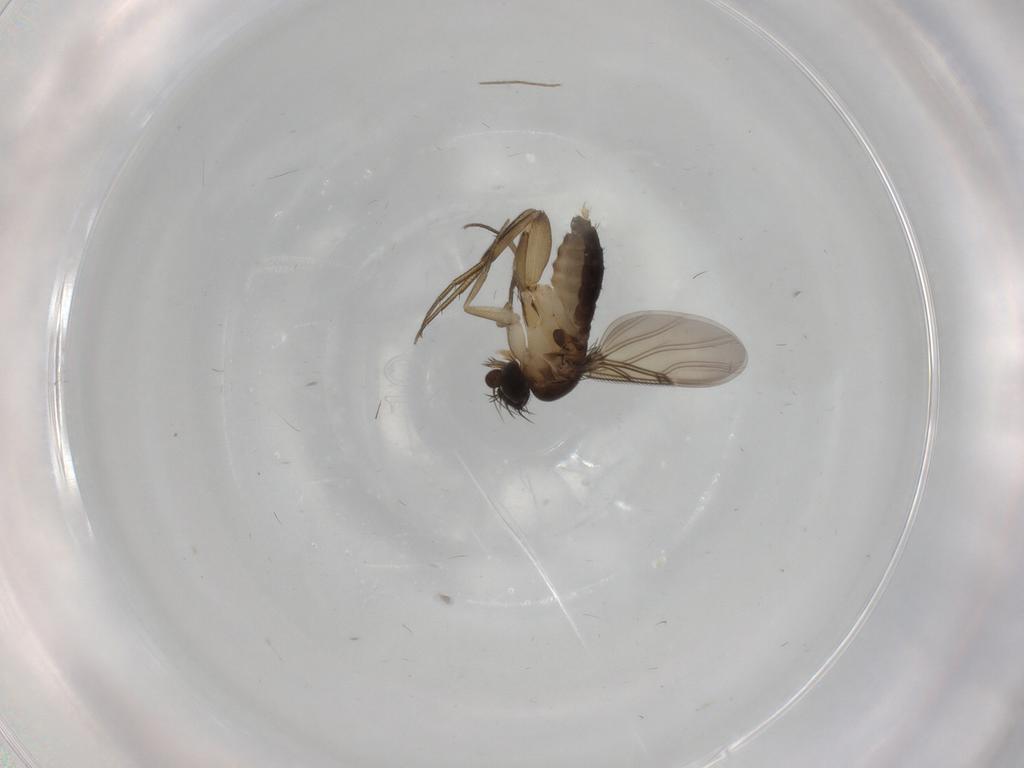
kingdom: Animalia
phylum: Arthropoda
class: Insecta
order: Diptera
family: Phoridae
